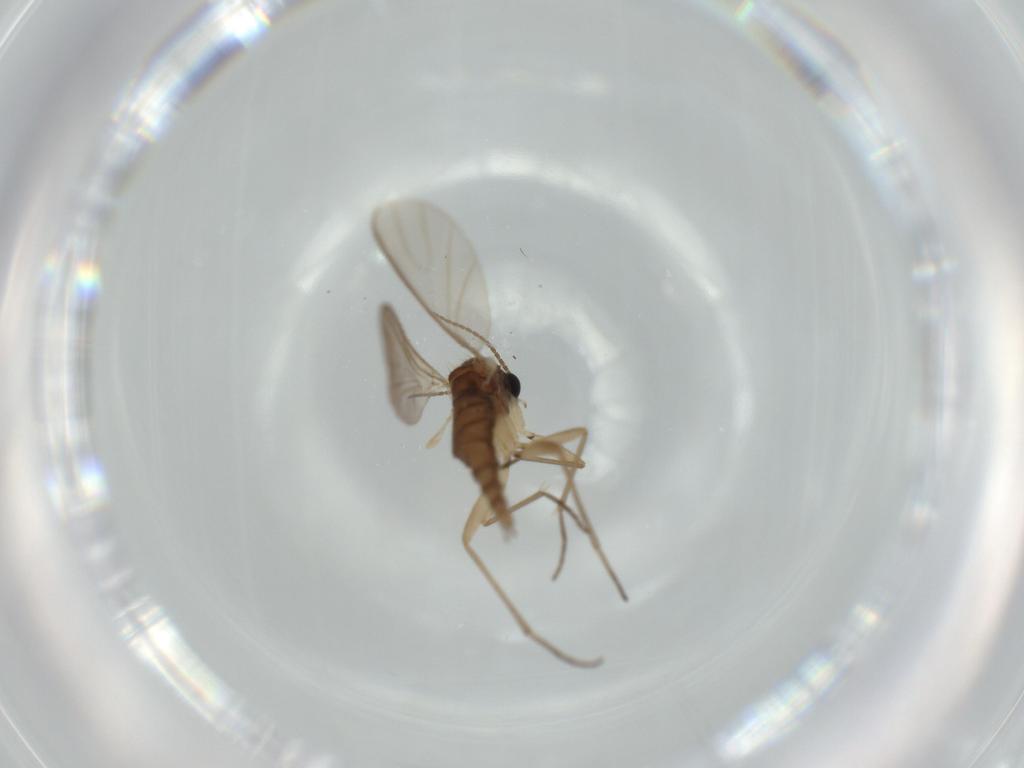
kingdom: Animalia
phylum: Arthropoda
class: Insecta
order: Diptera
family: Sciaridae
